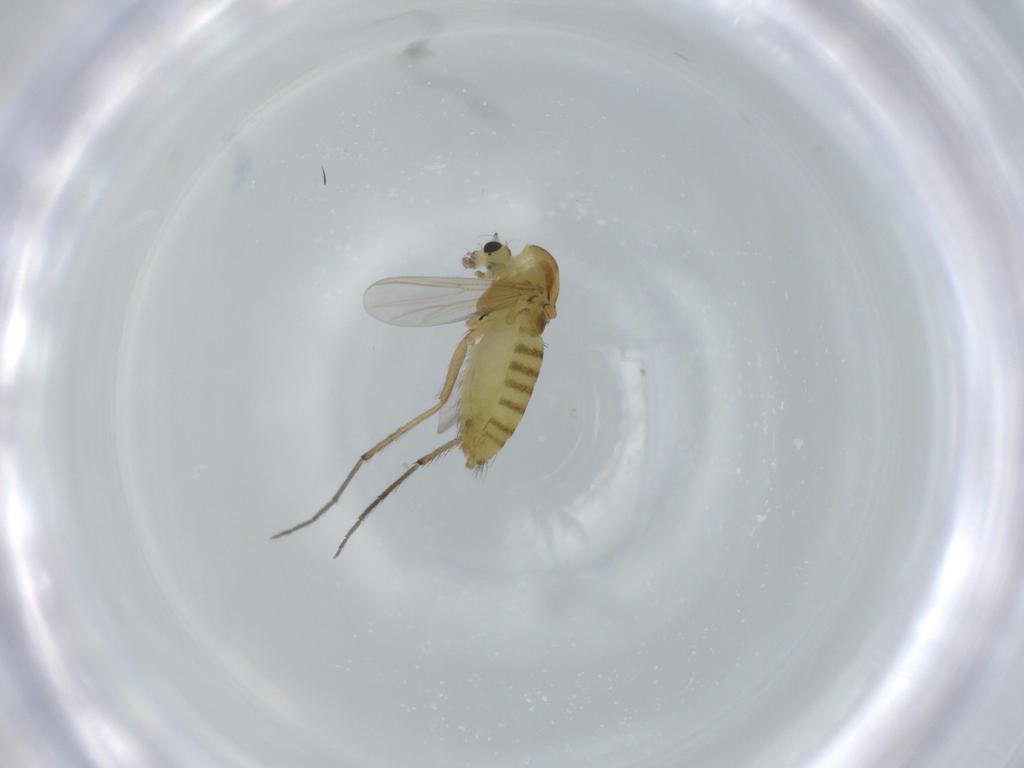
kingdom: Animalia
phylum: Arthropoda
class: Insecta
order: Diptera
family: Chironomidae
